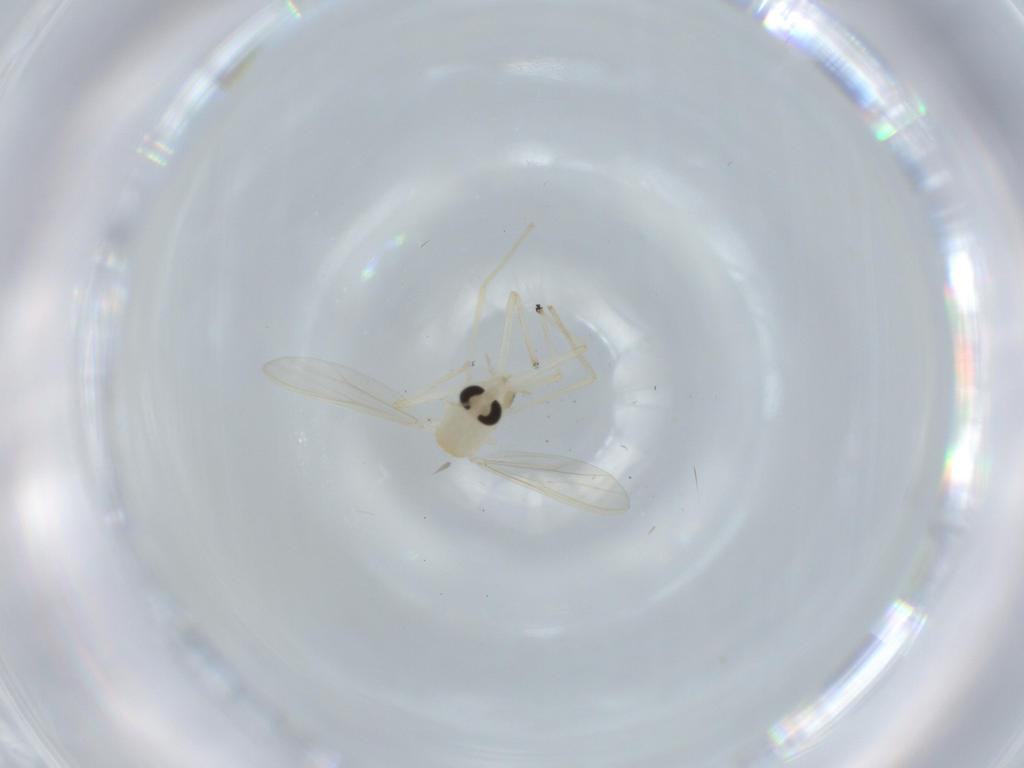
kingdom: Animalia
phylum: Arthropoda
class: Insecta
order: Diptera
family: Chironomidae
